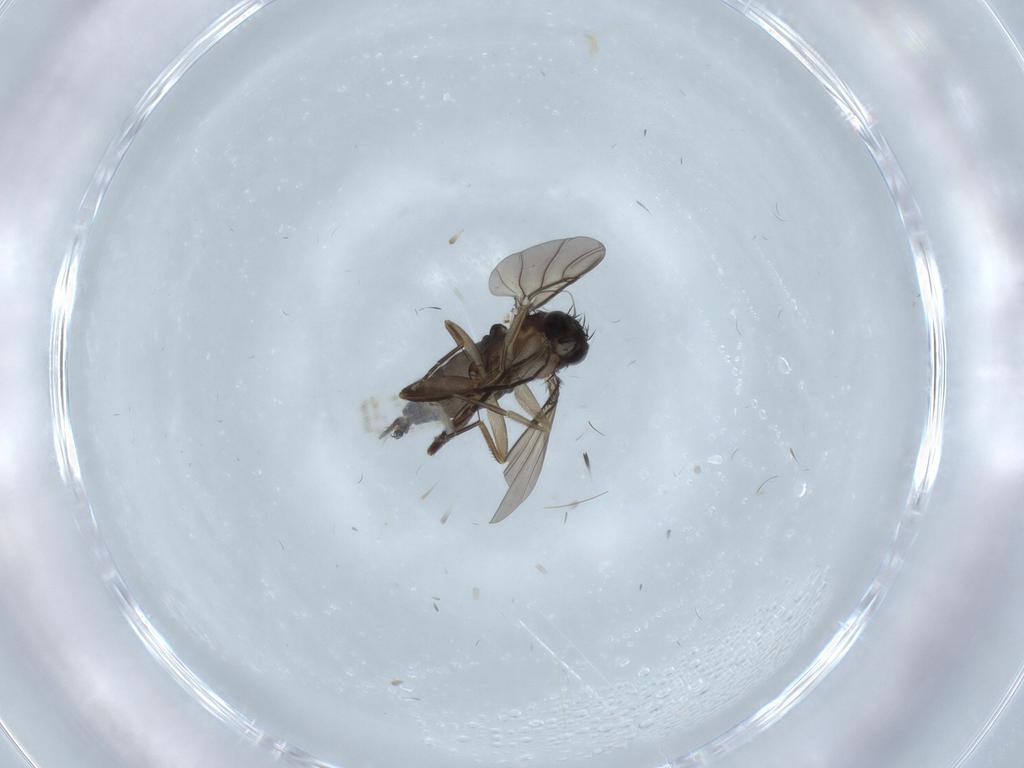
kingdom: Animalia
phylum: Arthropoda
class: Insecta
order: Diptera
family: Phoridae
